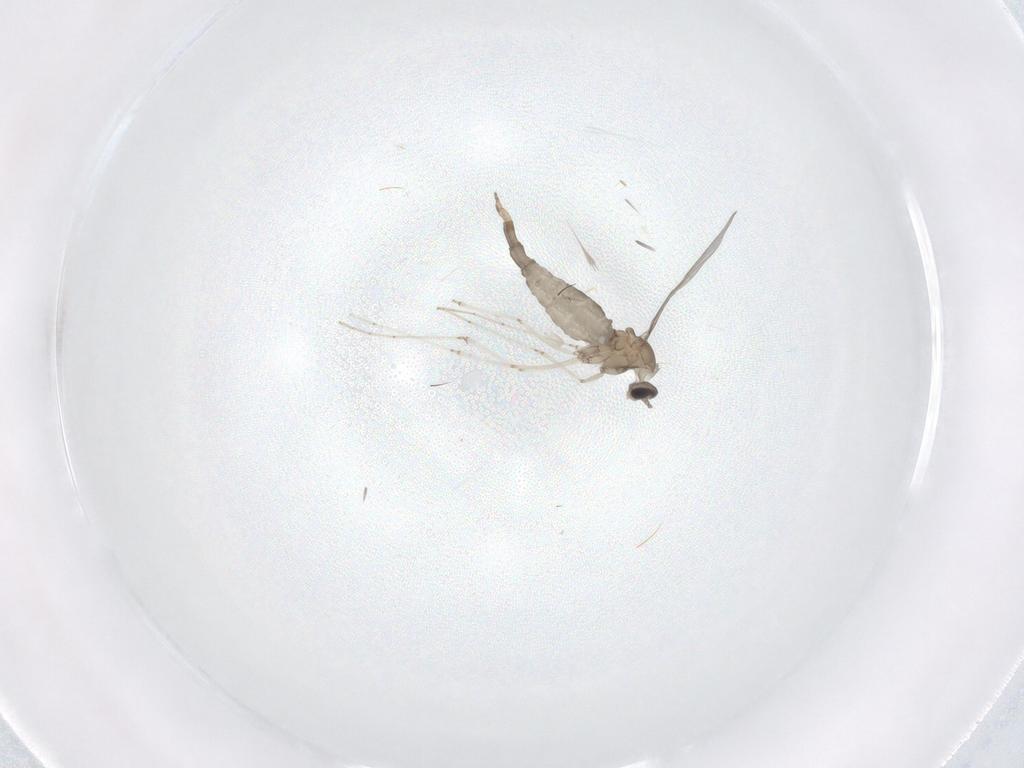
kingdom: Animalia
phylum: Arthropoda
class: Insecta
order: Diptera
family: Cecidomyiidae
